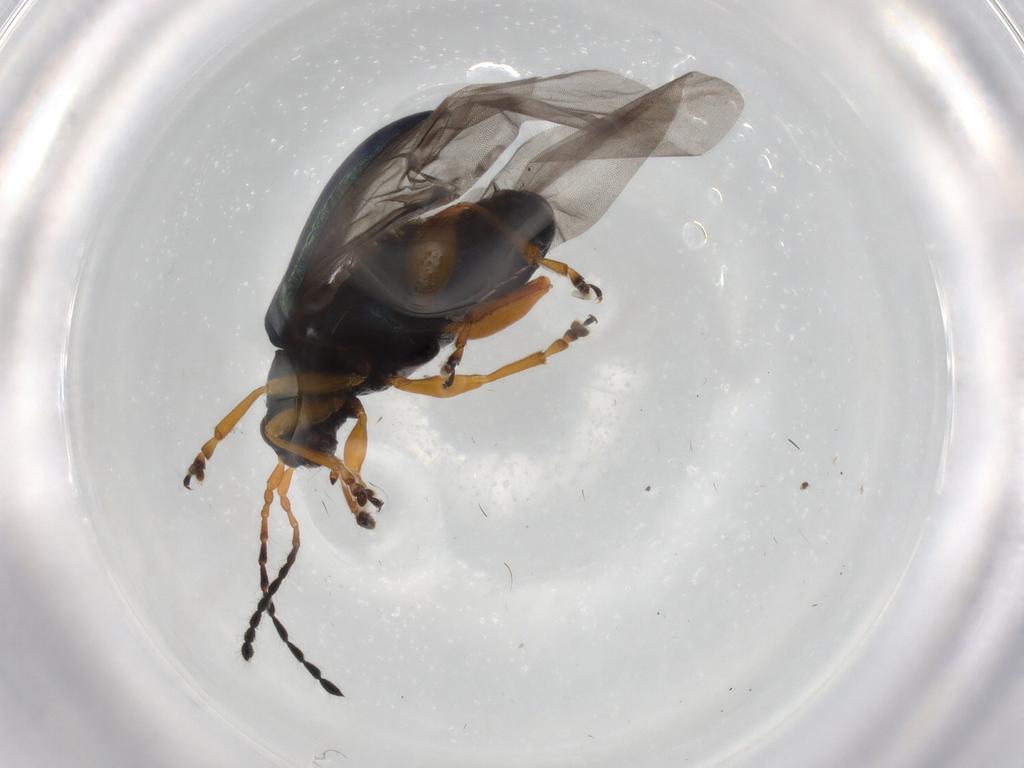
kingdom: Animalia
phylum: Arthropoda
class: Insecta
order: Coleoptera
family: Chrysomelidae
